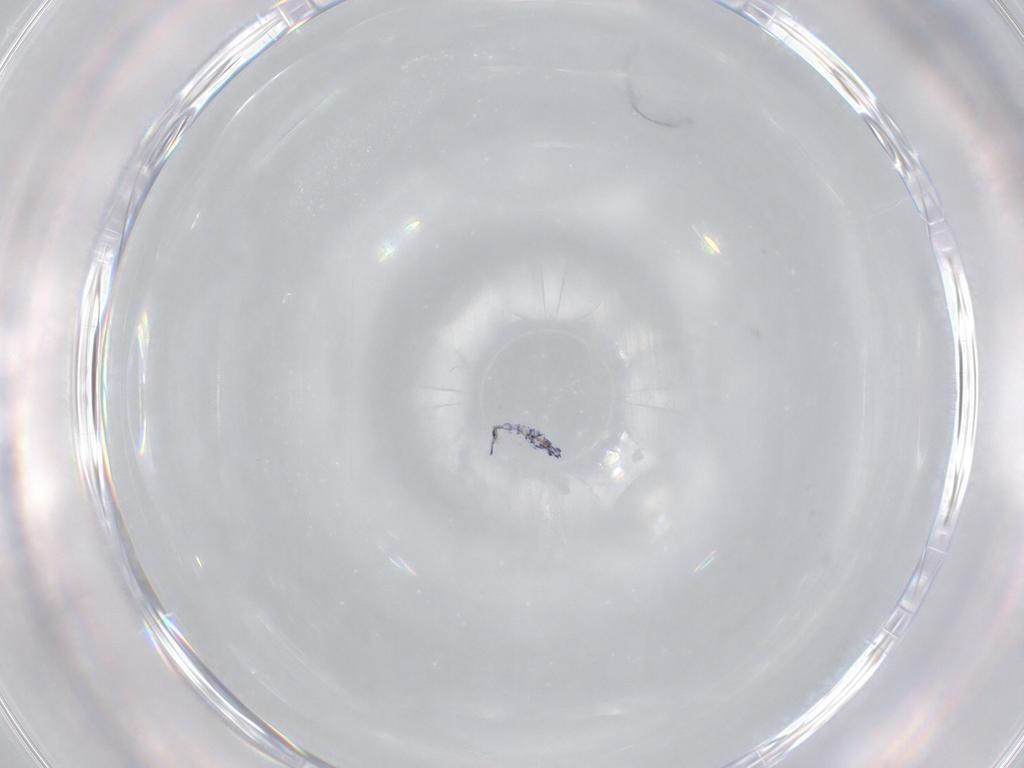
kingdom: Animalia
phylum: Arthropoda
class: Collembola
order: Entomobryomorpha
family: Entomobryidae
